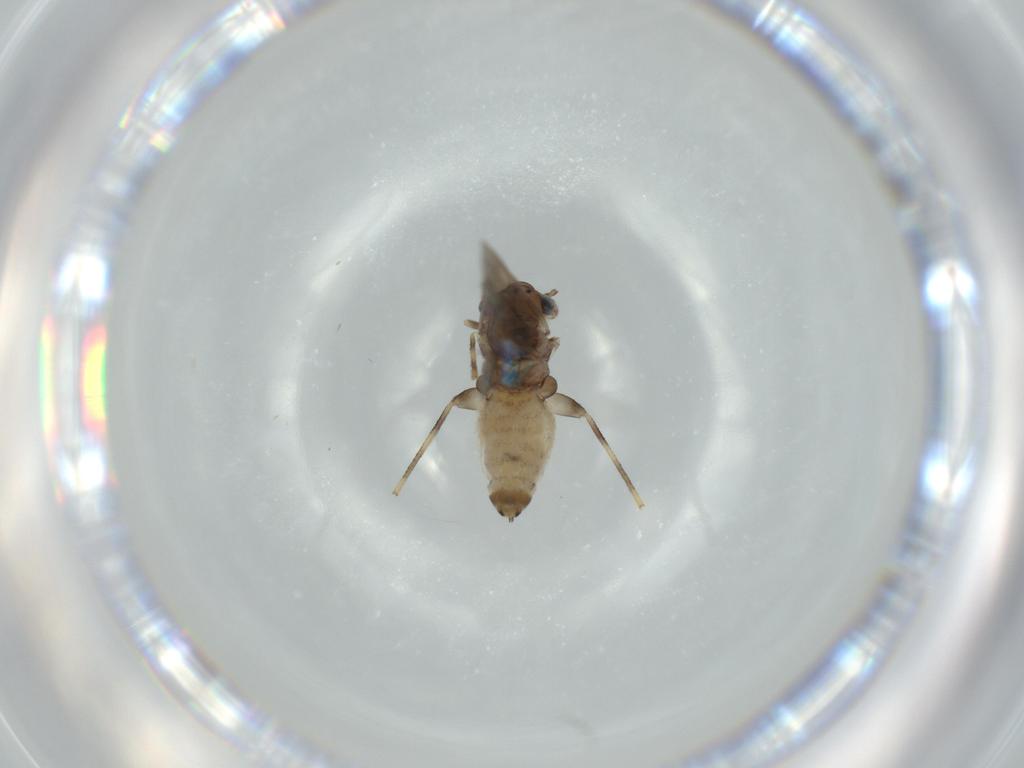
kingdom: Animalia
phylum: Arthropoda
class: Insecta
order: Psocodea
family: Lepidopsocidae
